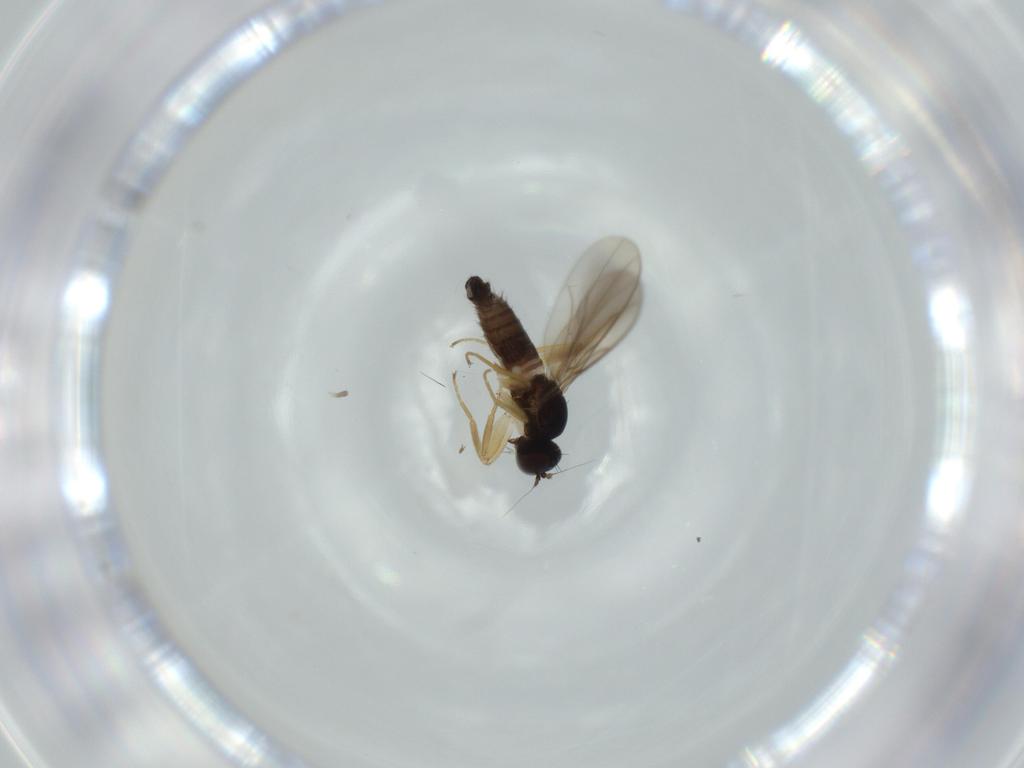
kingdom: Animalia
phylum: Arthropoda
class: Insecta
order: Diptera
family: Hybotidae
